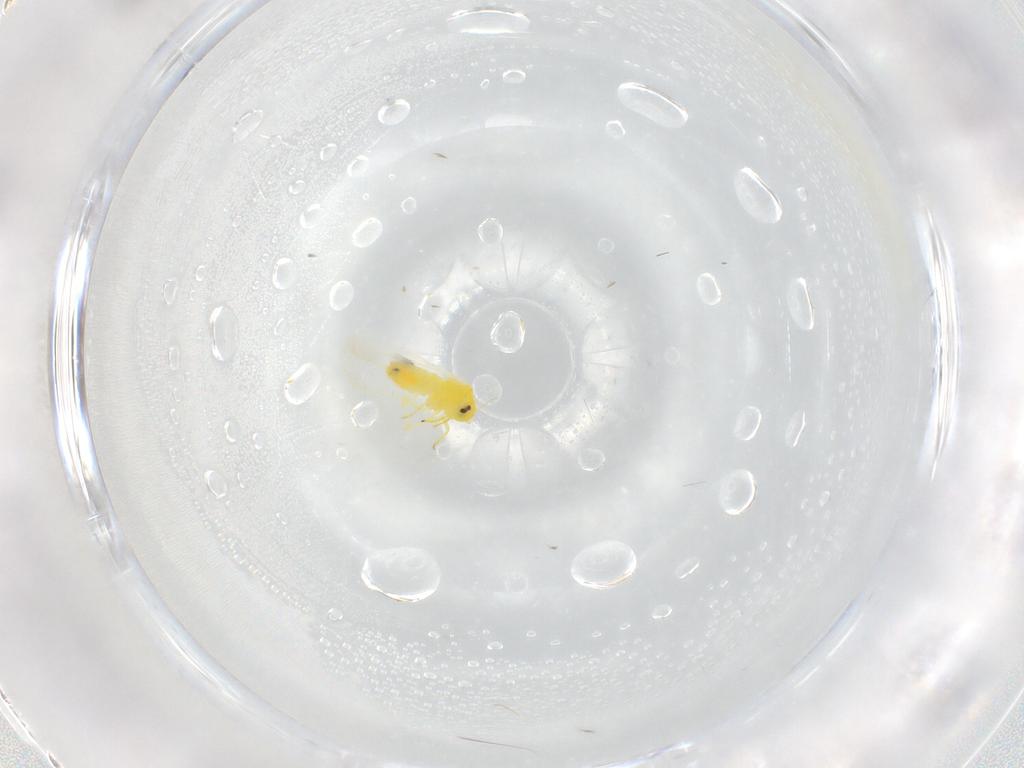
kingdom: Animalia
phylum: Arthropoda
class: Insecta
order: Hemiptera
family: Aleyrodidae
